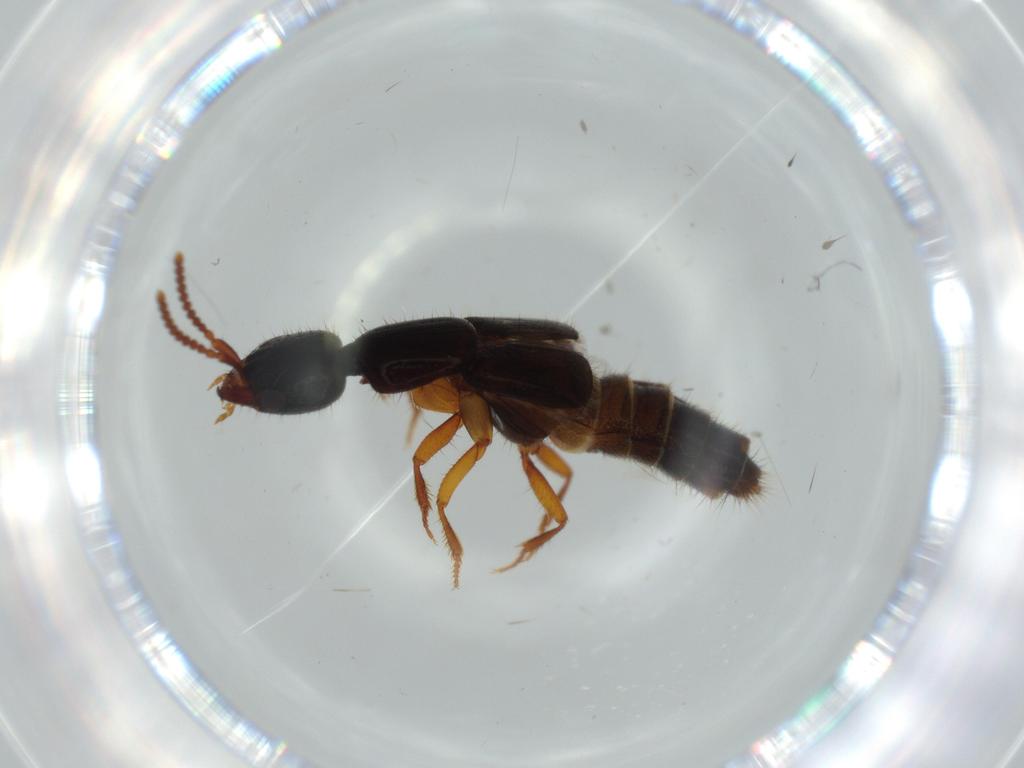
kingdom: Animalia
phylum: Arthropoda
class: Insecta
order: Coleoptera
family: Staphylinidae
